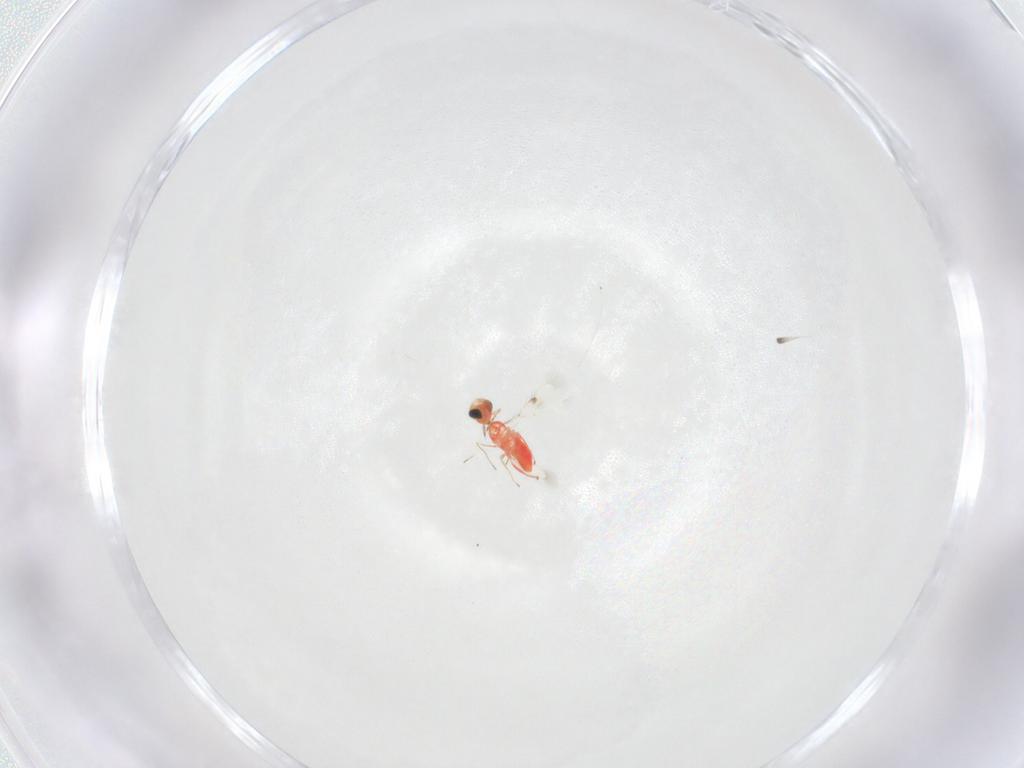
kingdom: Animalia
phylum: Arthropoda
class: Insecta
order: Hymenoptera
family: Trichogrammatidae
